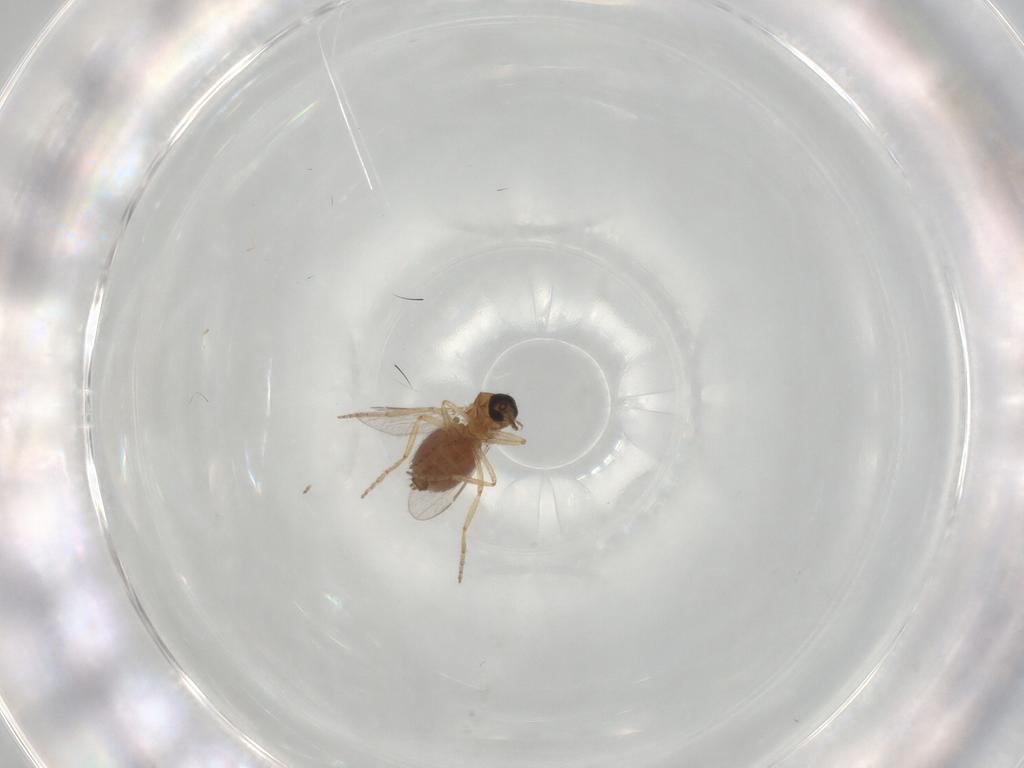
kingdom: Animalia
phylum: Arthropoda
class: Insecta
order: Diptera
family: Ceratopogonidae
